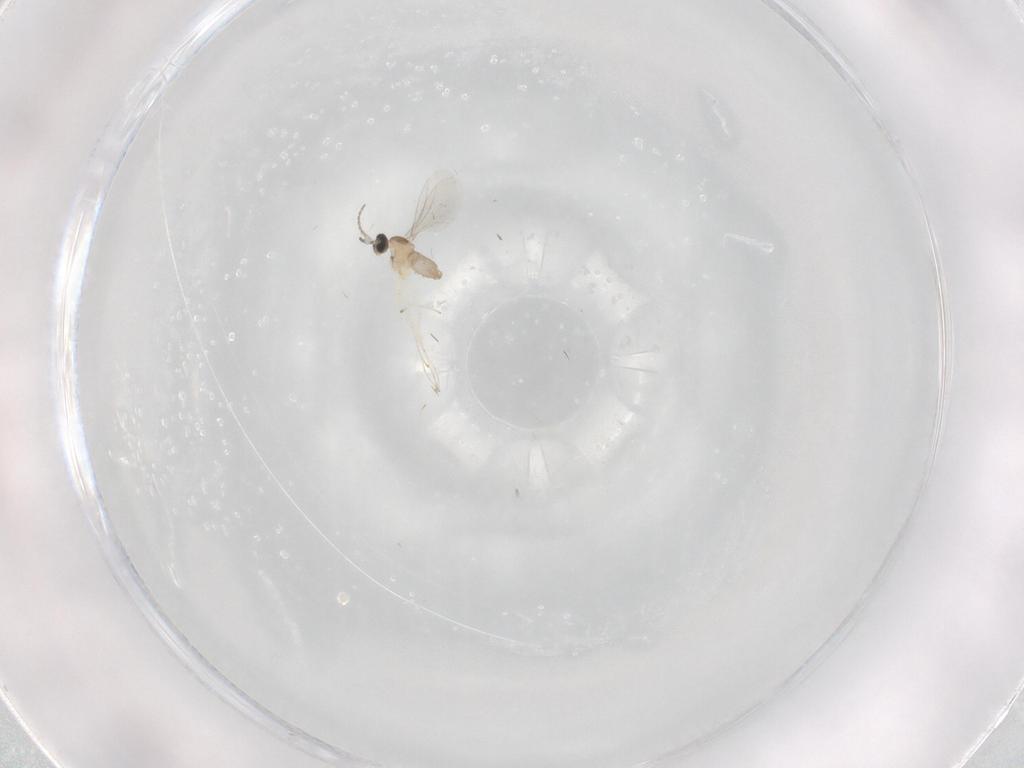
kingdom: Animalia
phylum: Arthropoda
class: Insecta
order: Diptera
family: Cecidomyiidae
